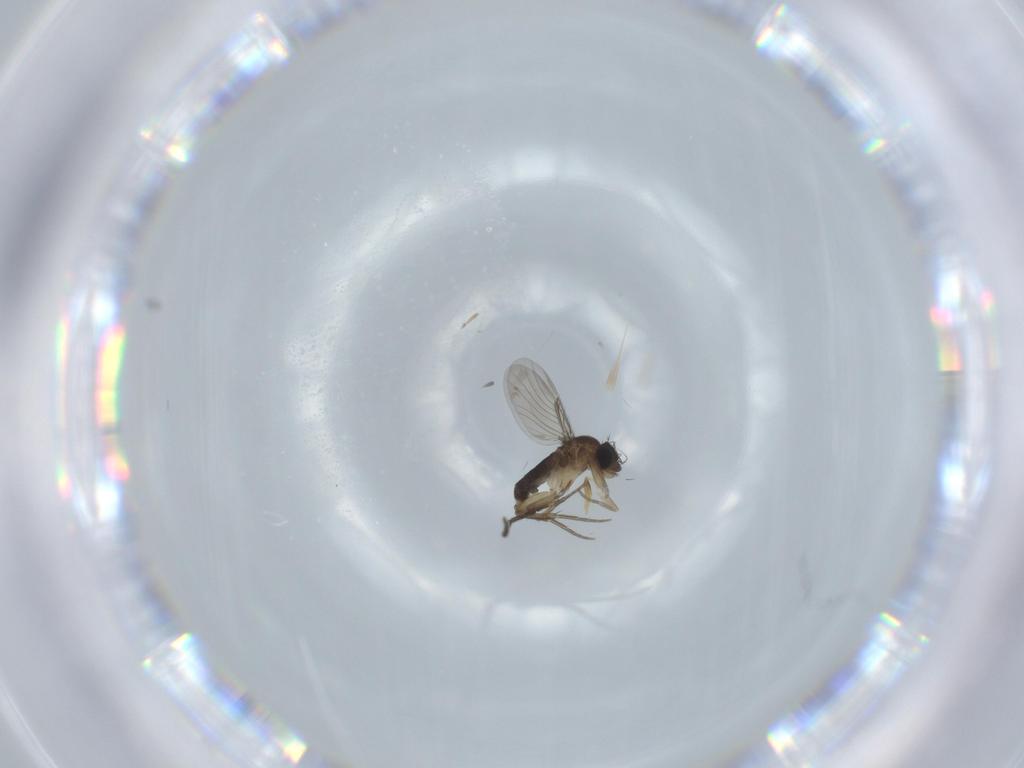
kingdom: Animalia
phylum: Arthropoda
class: Insecta
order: Diptera
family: Phoridae
